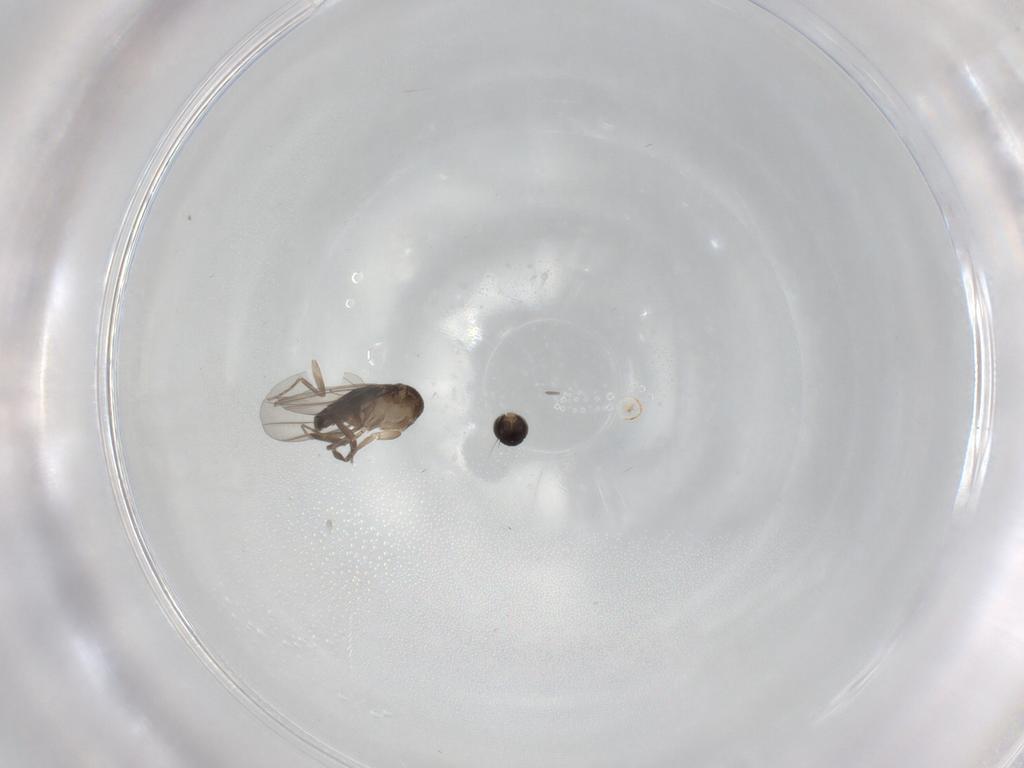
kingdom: Animalia
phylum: Arthropoda
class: Insecta
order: Diptera
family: Phoridae
